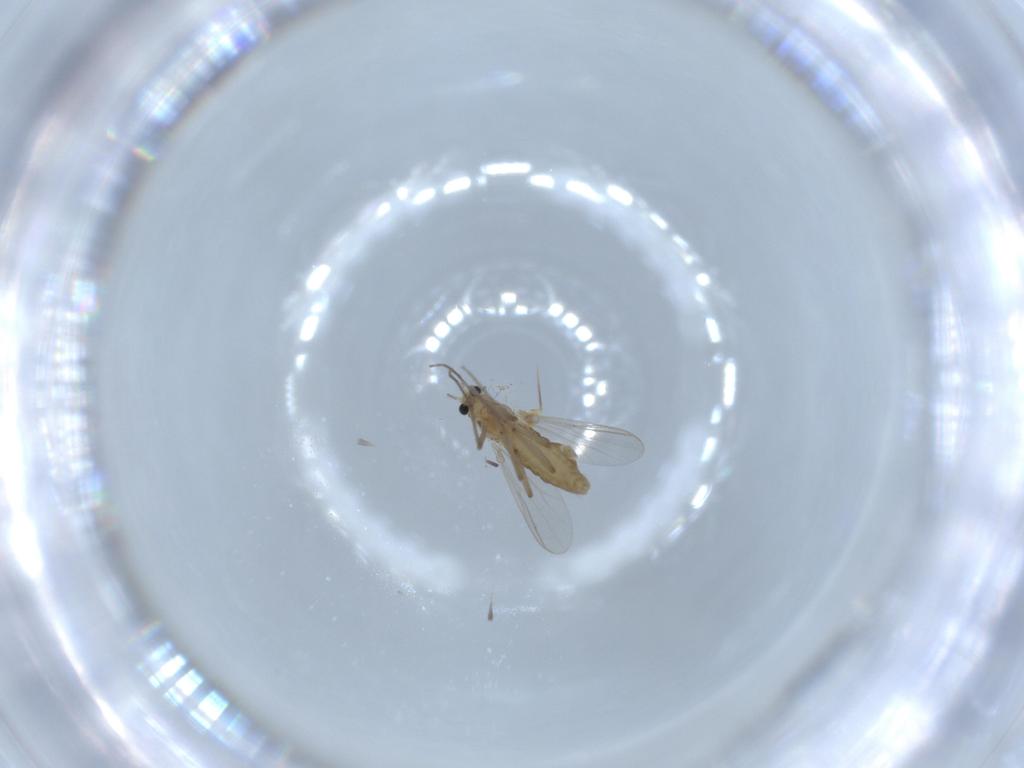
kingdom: Animalia
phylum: Arthropoda
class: Insecta
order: Diptera
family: Chironomidae
